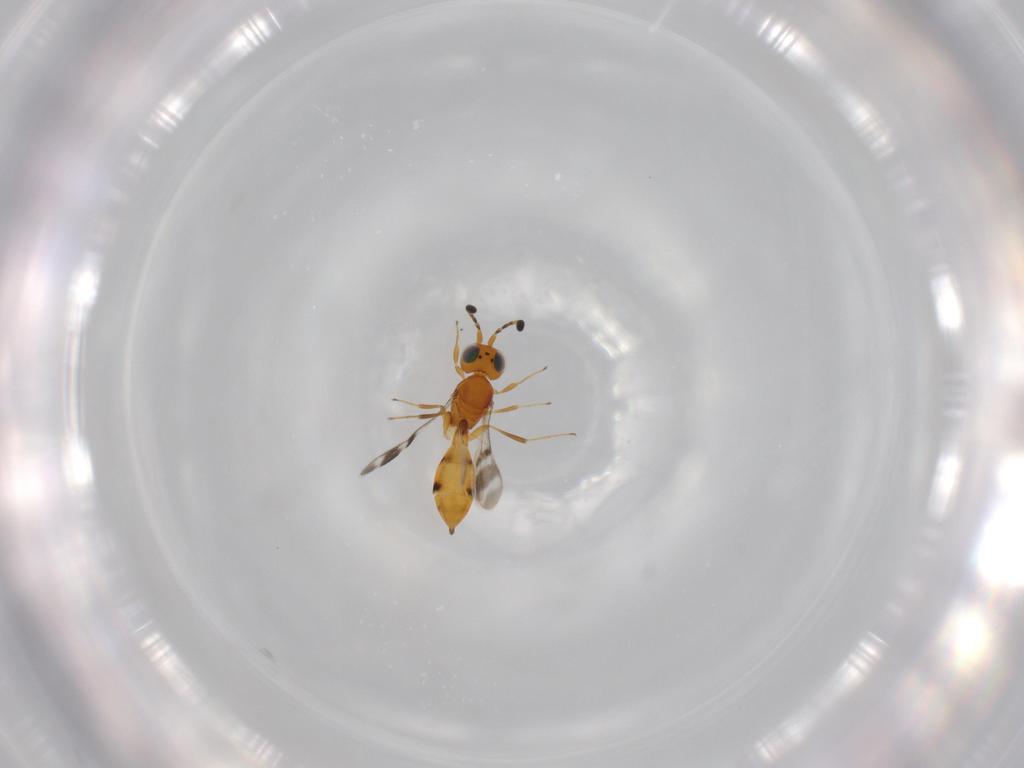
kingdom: Animalia
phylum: Arthropoda
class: Insecta
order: Hymenoptera
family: Scelionidae
